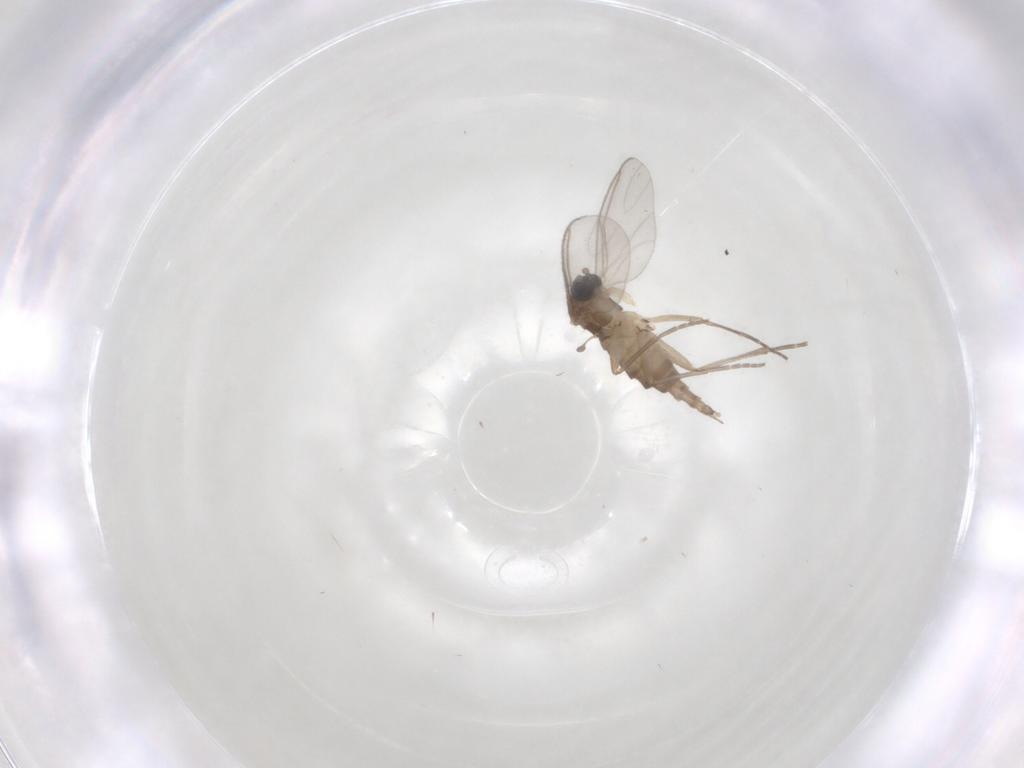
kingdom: Animalia
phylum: Arthropoda
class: Insecta
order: Diptera
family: Sciaridae
